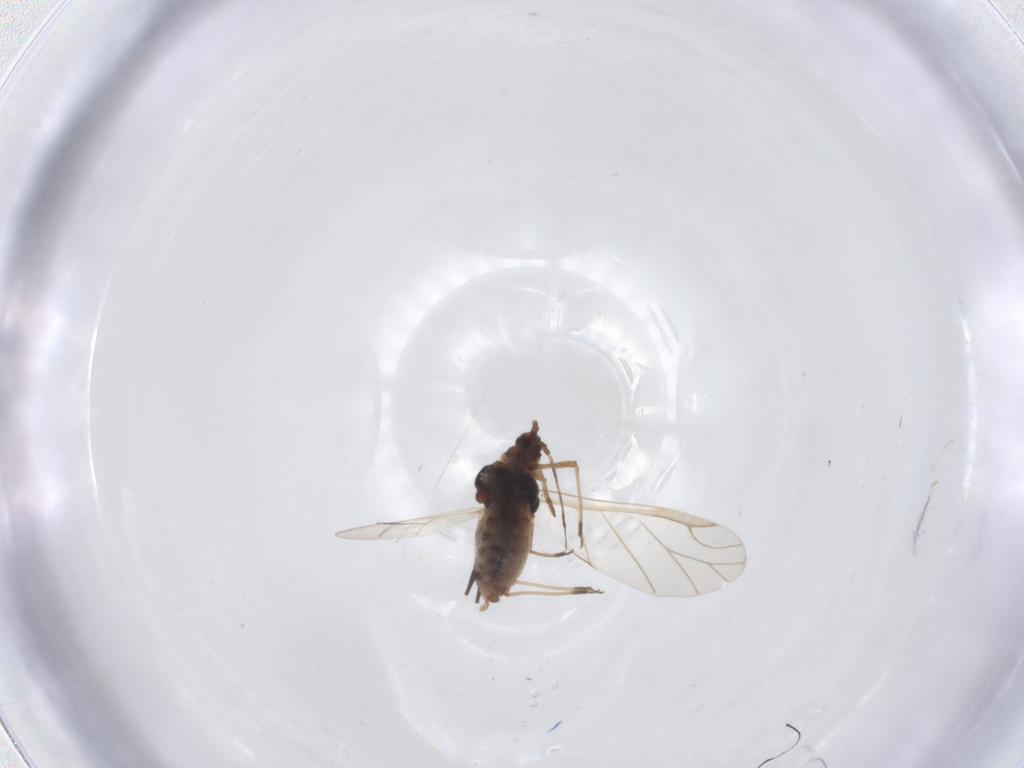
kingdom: Animalia
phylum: Arthropoda
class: Insecta
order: Hemiptera
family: Aphididae
